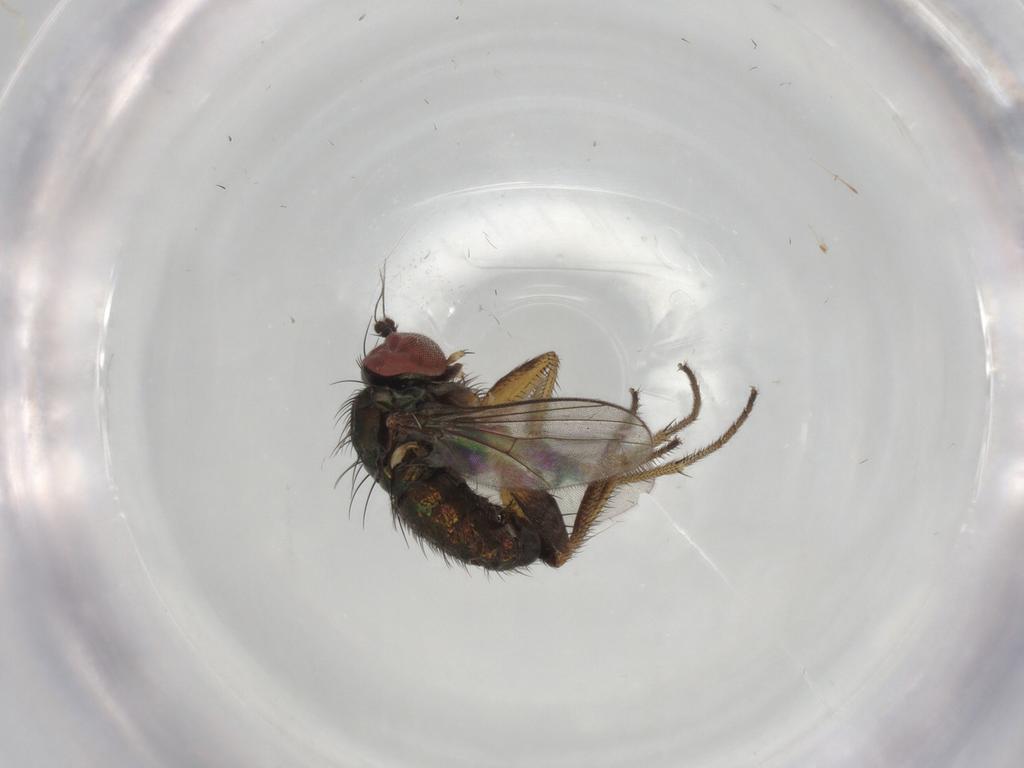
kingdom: Animalia
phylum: Arthropoda
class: Insecta
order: Diptera
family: Dolichopodidae
